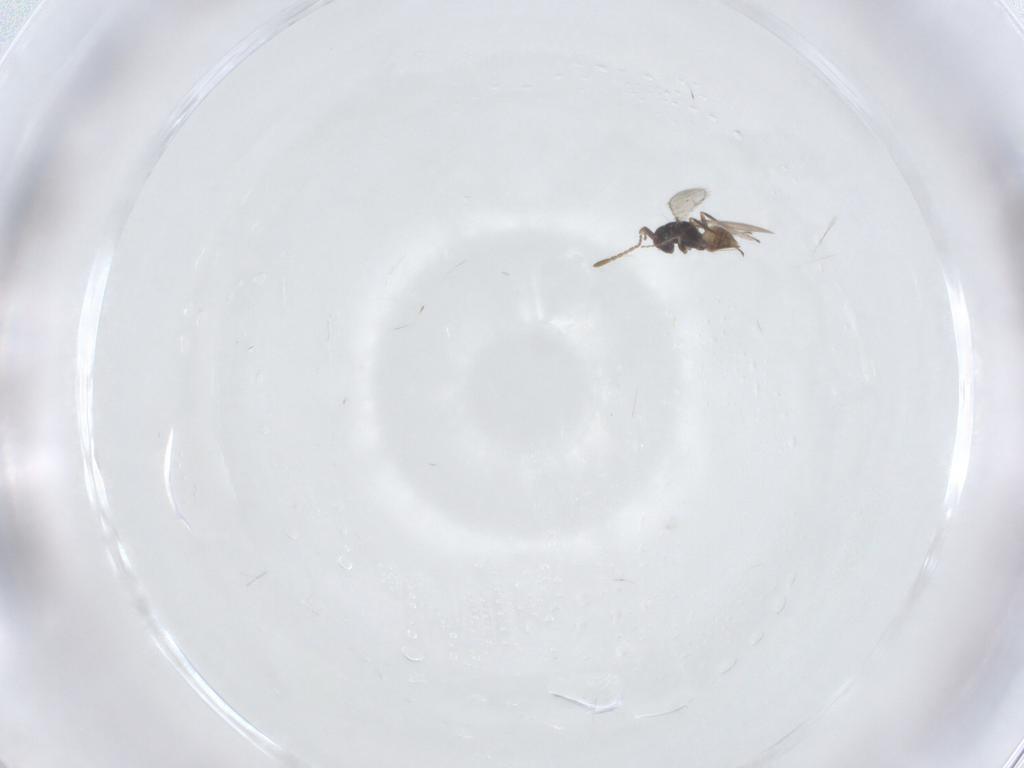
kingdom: Animalia
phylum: Arthropoda
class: Insecta
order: Hymenoptera
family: Mymaridae
